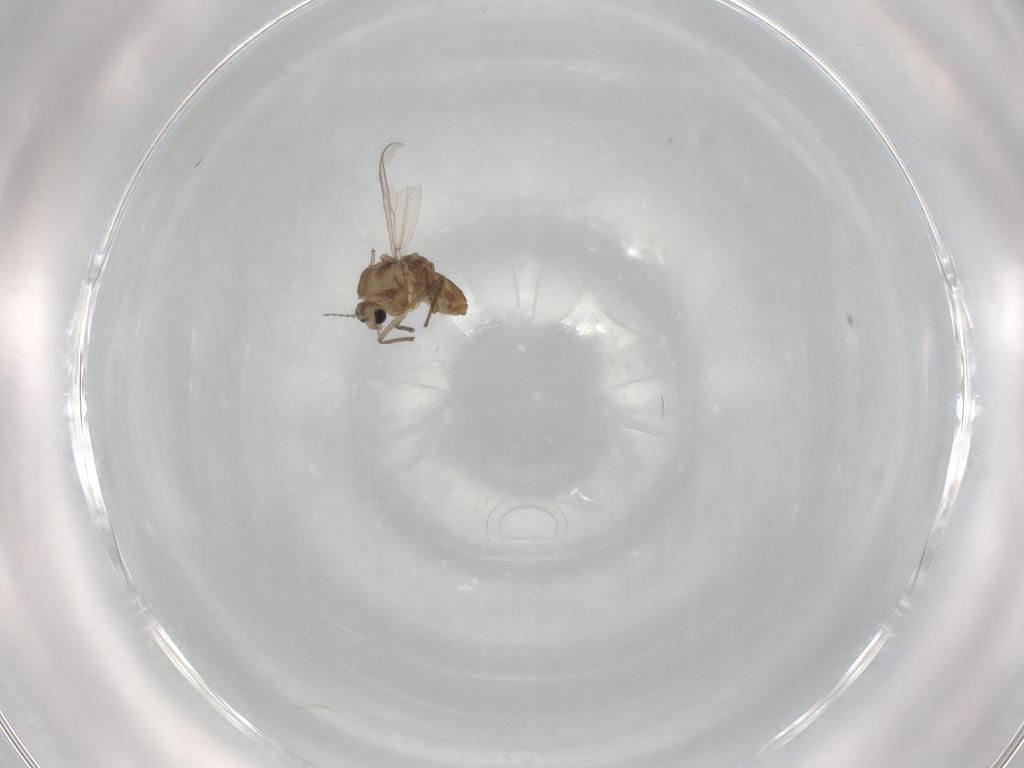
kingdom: Animalia
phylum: Arthropoda
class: Insecta
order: Diptera
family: Chironomidae
